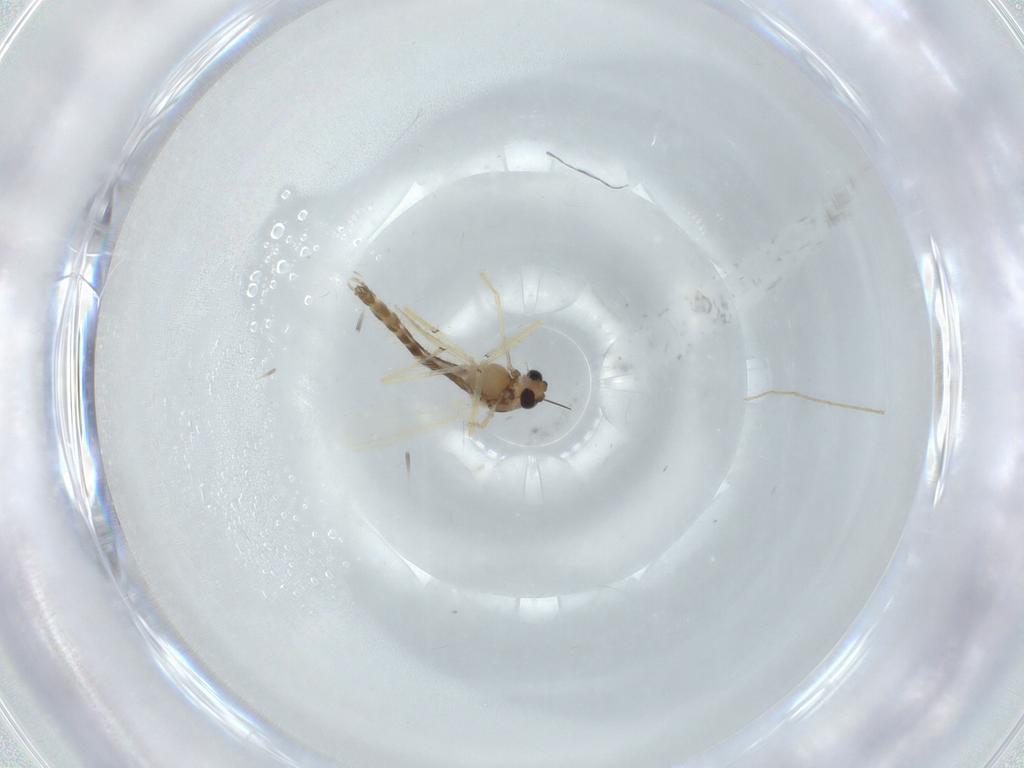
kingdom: Animalia
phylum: Arthropoda
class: Insecta
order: Diptera
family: Chironomidae
